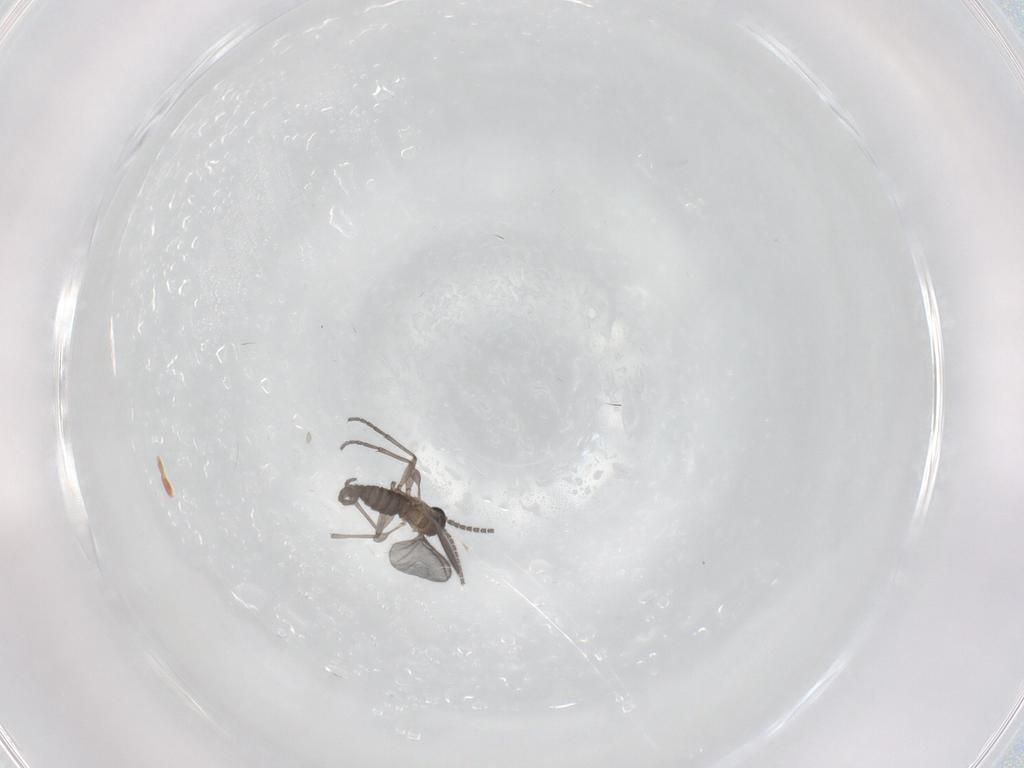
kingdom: Animalia
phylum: Arthropoda
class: Insecta
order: Diptera
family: Sciaridae
